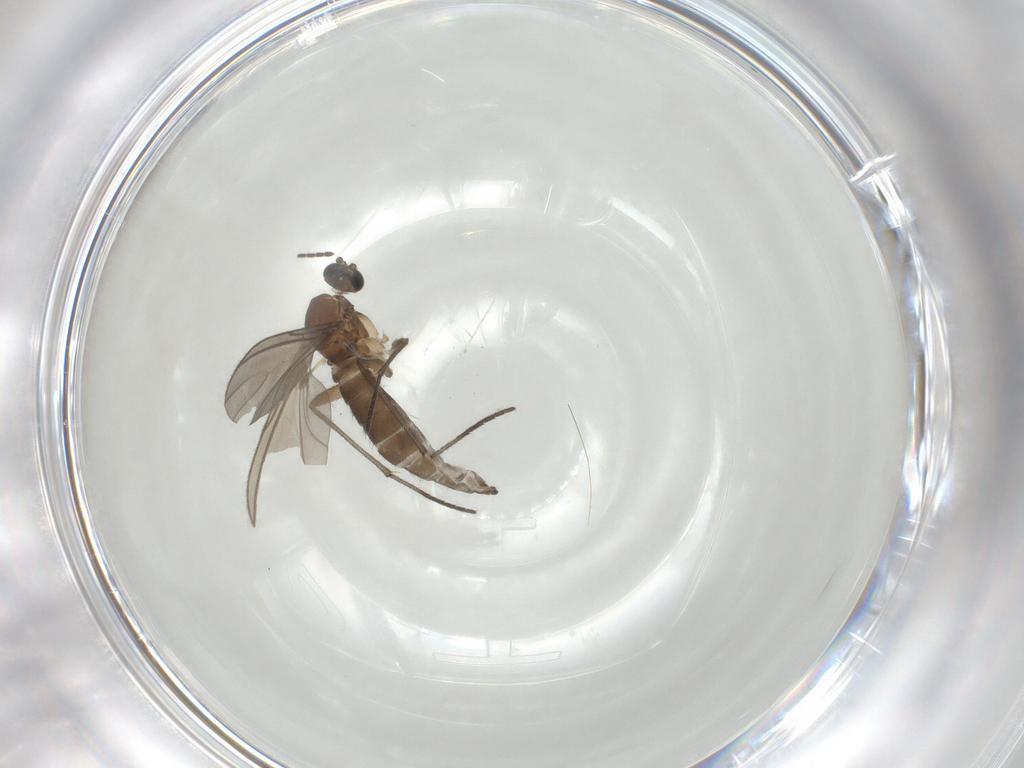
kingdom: Animalia
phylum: Arthropoda
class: Insecta
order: Diptera
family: Dolichopodidae
